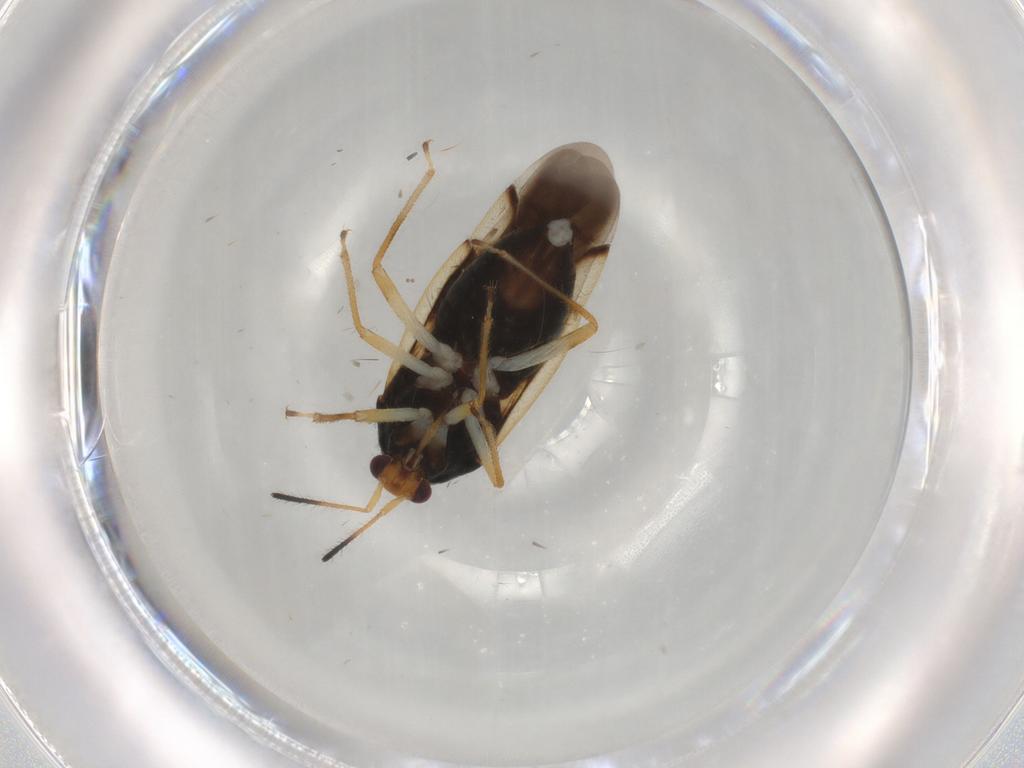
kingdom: Animalia
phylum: Arthropoda
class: Insecta
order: Hemiptera
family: Miridae
